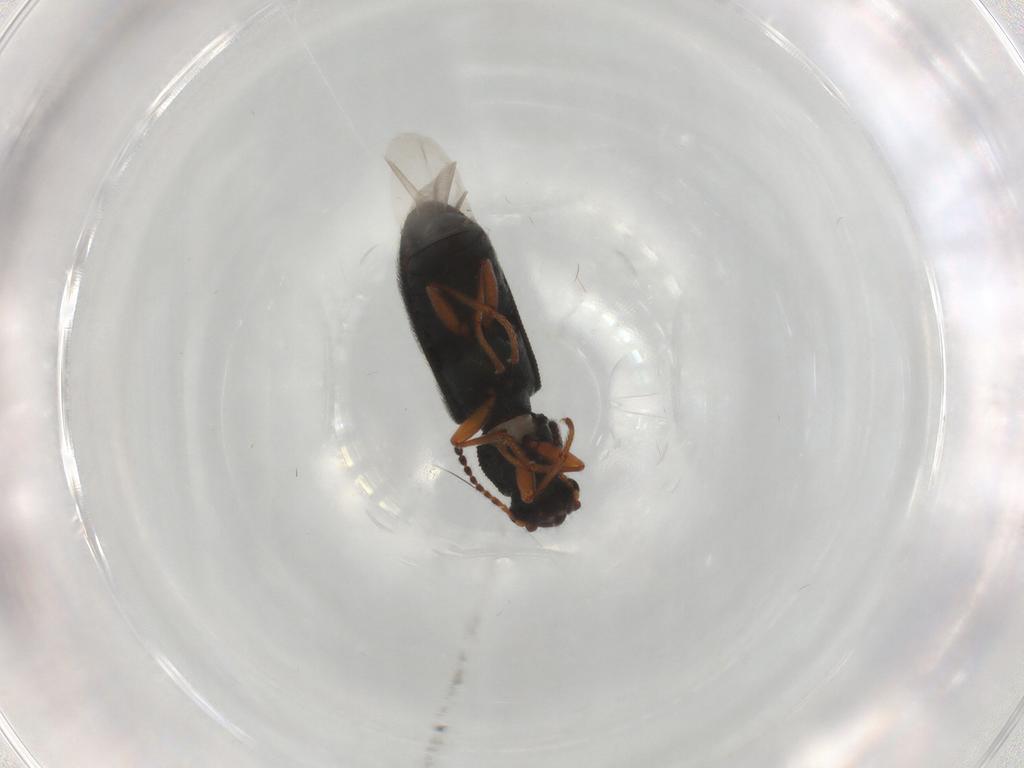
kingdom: Animalia
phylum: Arthropoda
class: Insecta
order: Coleoptera
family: Melyridae
